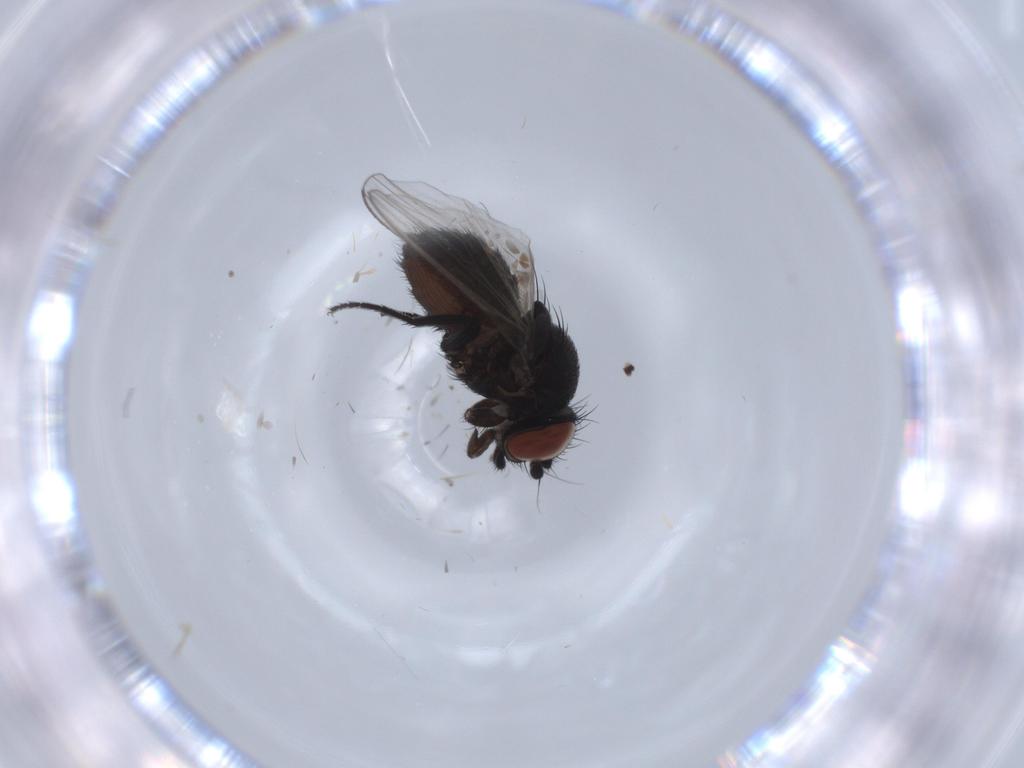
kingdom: Animalia
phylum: Arthropoda
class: Insecta
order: Diptera
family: Milichiidae
